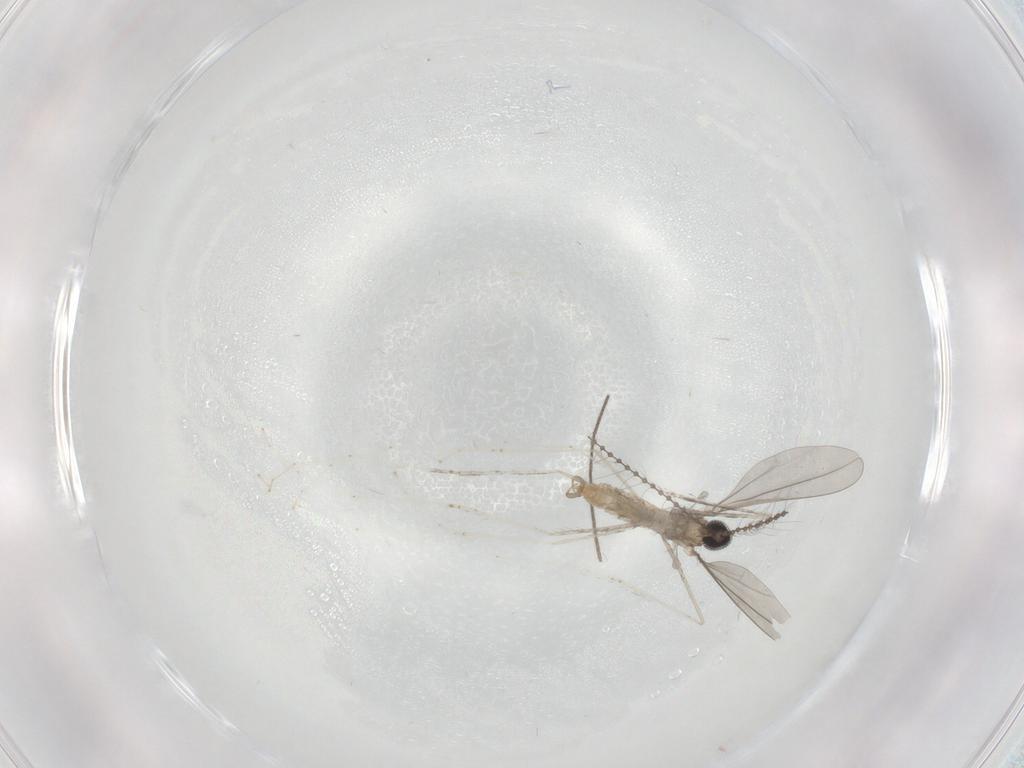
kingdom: Animalia
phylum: Arthropoda
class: Insecta
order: Diptera
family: Cecidomyiidae
